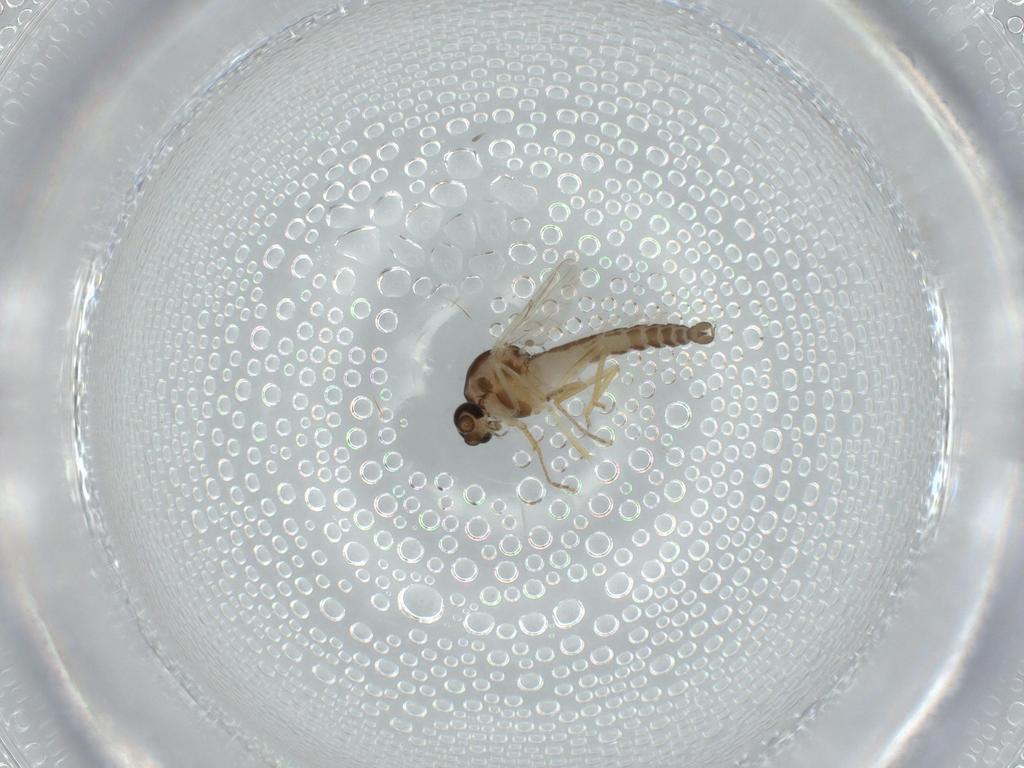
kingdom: Animalia
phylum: Arthropoda
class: Insecta
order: Diptera
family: Ceratopogonidae
